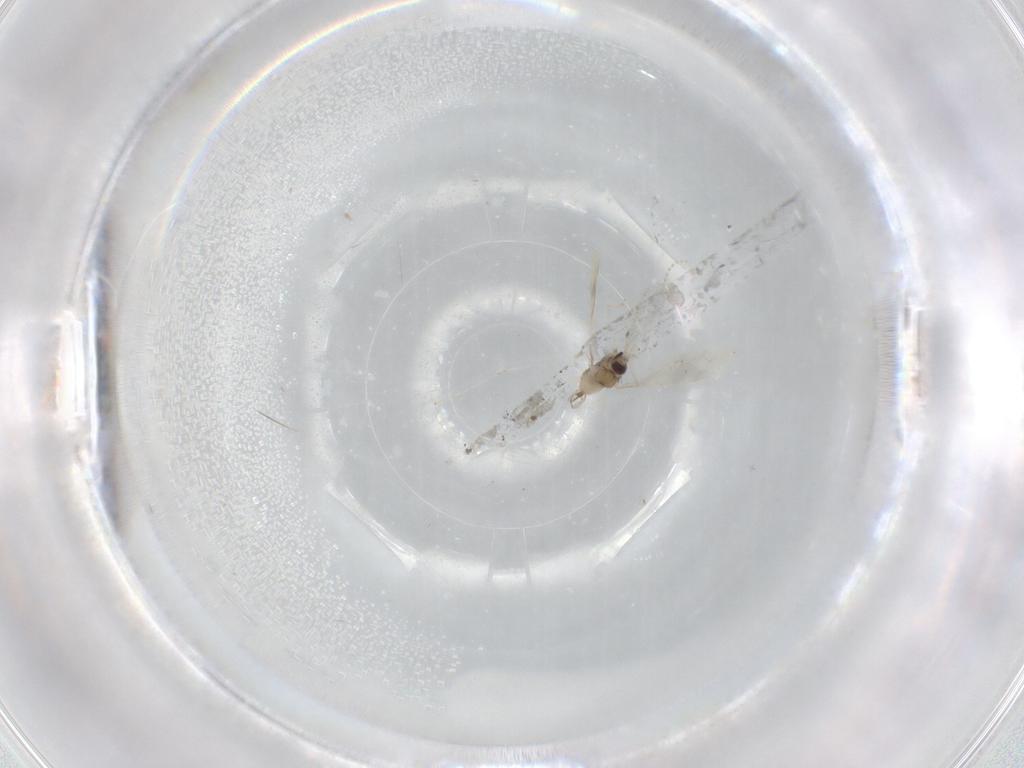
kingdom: Animalia
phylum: Arthropoda
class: Insecta
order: Diptera
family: Cecidomyiidae
